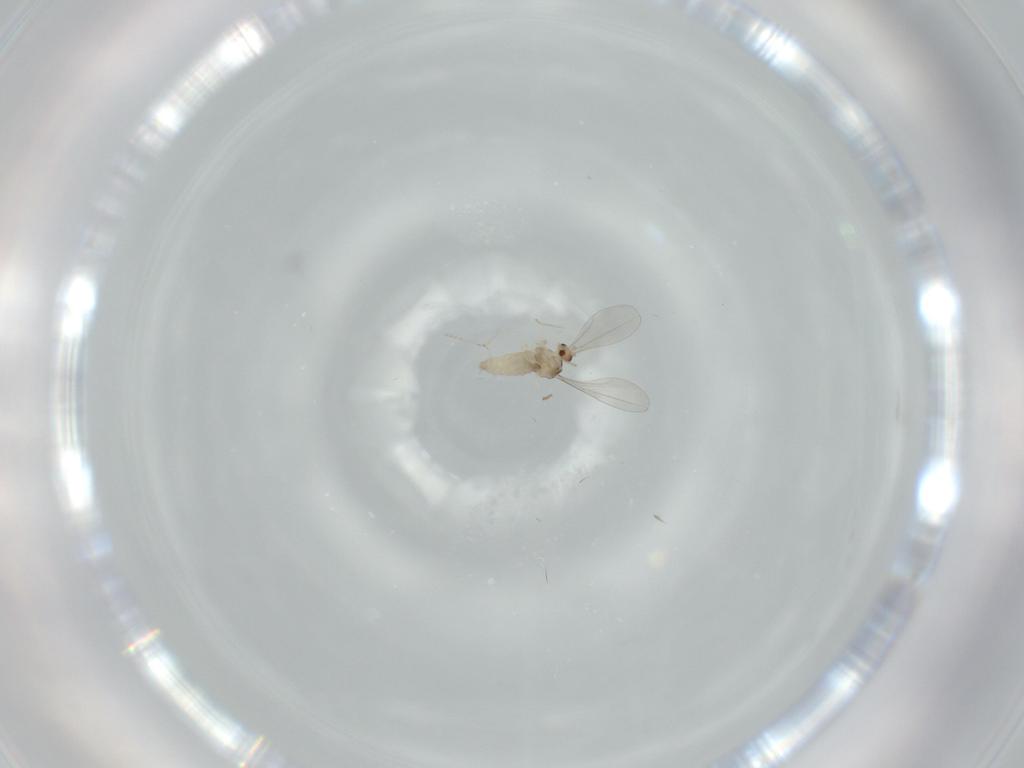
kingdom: Animalia
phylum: Arthropoda
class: Insecta
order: Diptera
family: Cecidomyiidae
